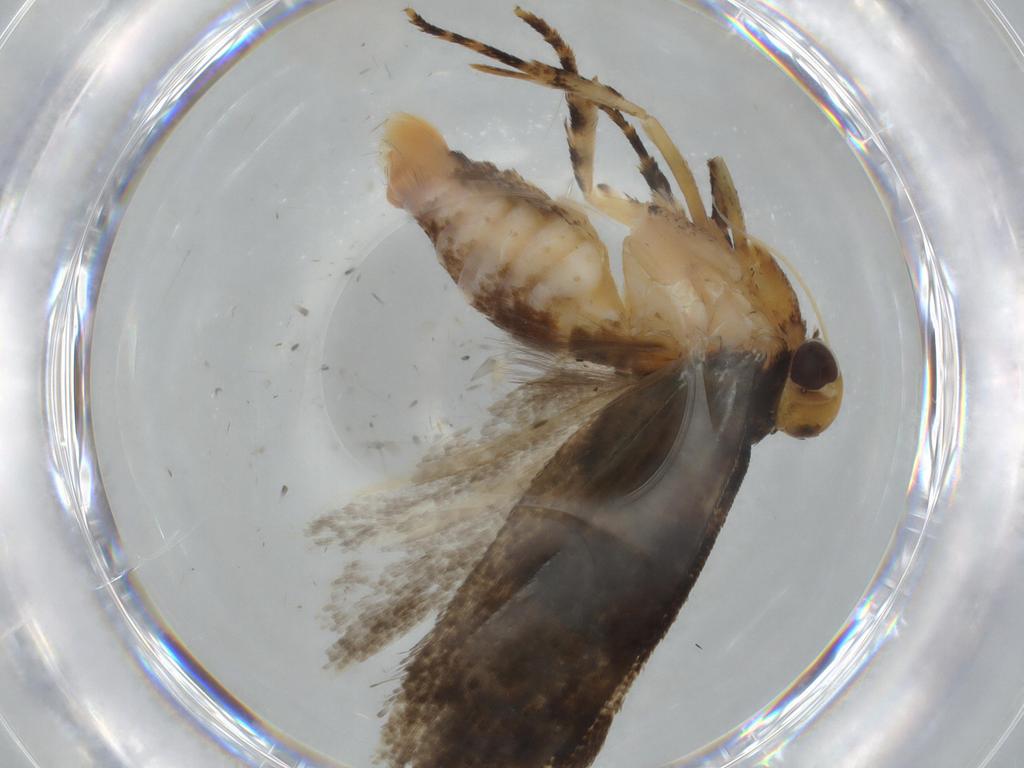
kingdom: Animalia
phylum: Arthropoda
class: Insecta
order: Lepidoptera
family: Gelechiidae
